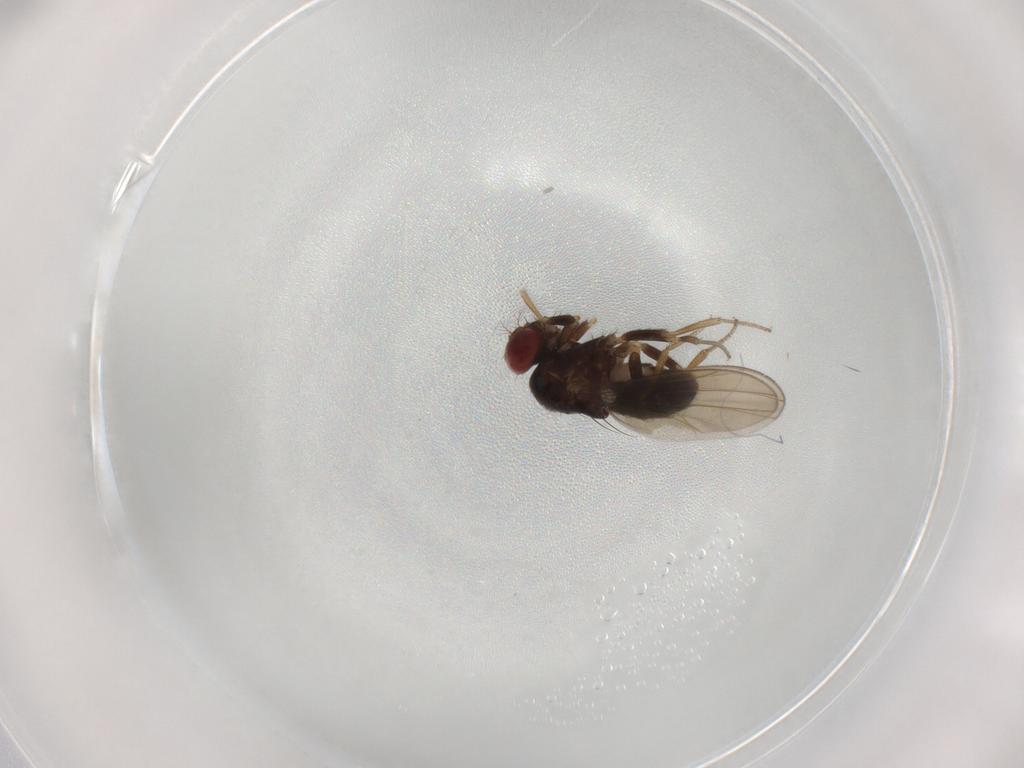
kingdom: Animalia
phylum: Arthropoda
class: Insecta
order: Diptera
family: Drosophilidae
